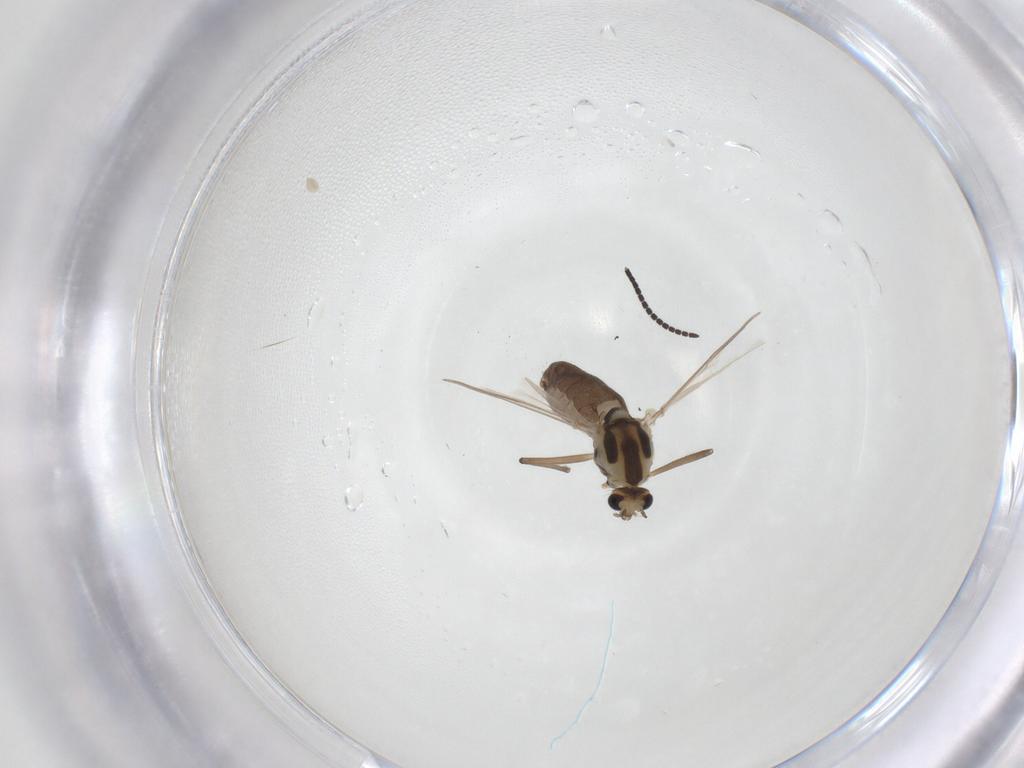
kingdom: Animalia
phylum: Arthropoda
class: Insecta
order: Diptera
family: Chironomidae
